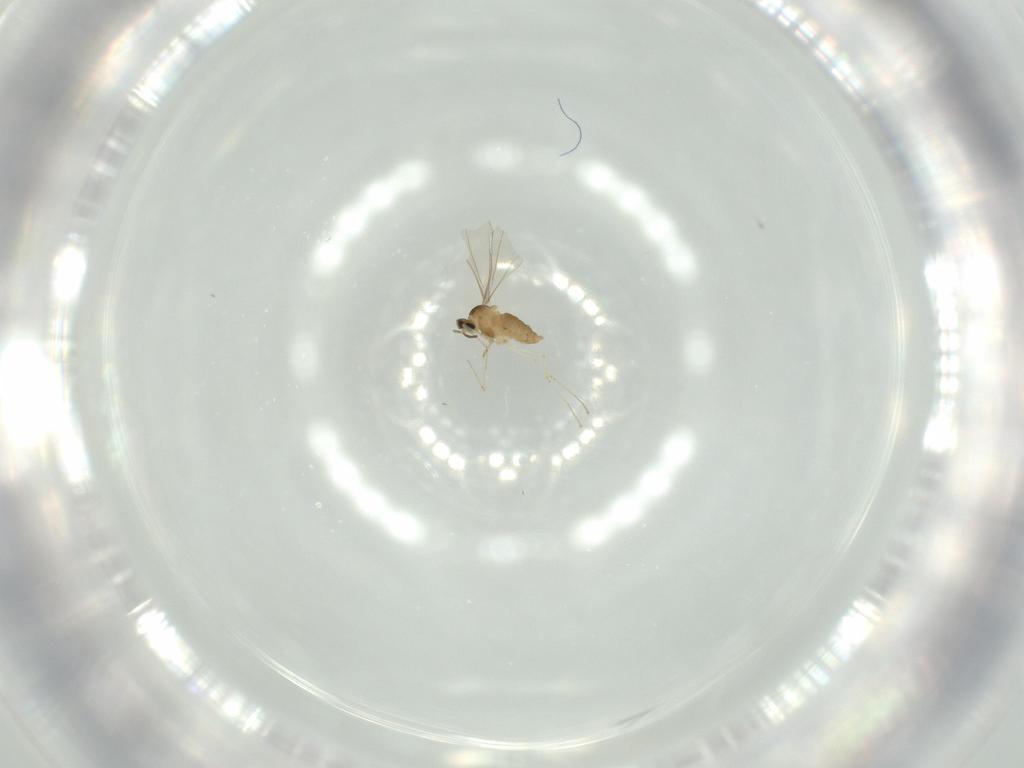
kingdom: Animalia
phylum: Arthropoda
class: Insecta
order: Diptera
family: Cecidomyiidae
